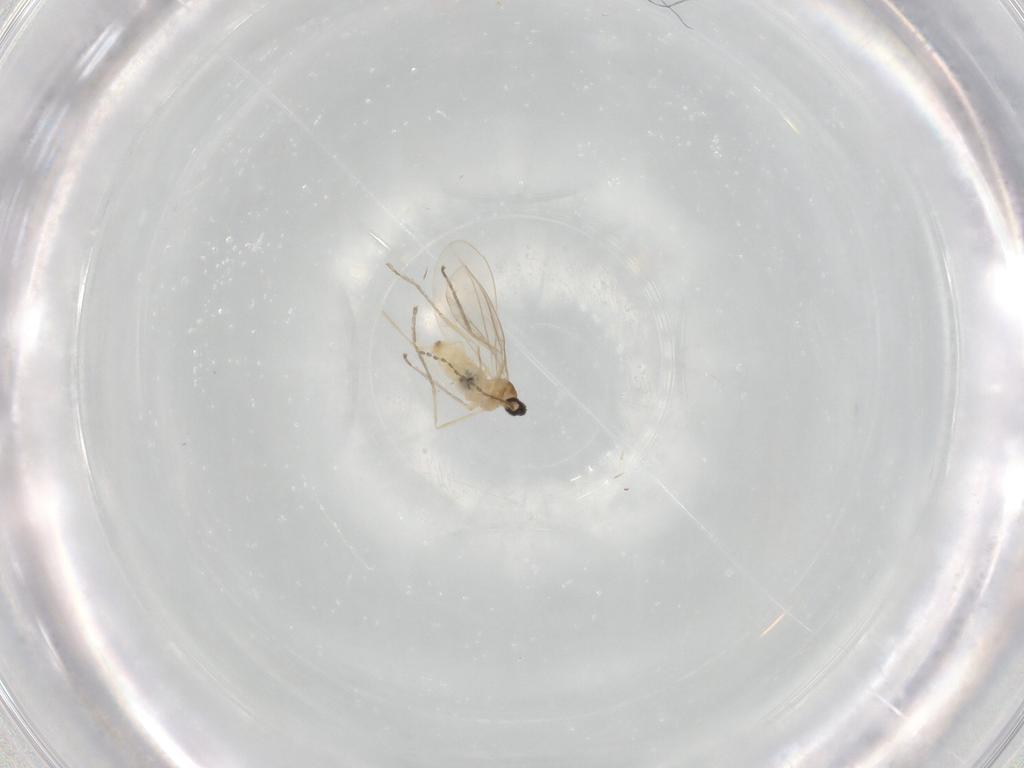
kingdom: Animalia
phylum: Arthropoda
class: Insecta
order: Diptera
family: Cecidomyiidae
